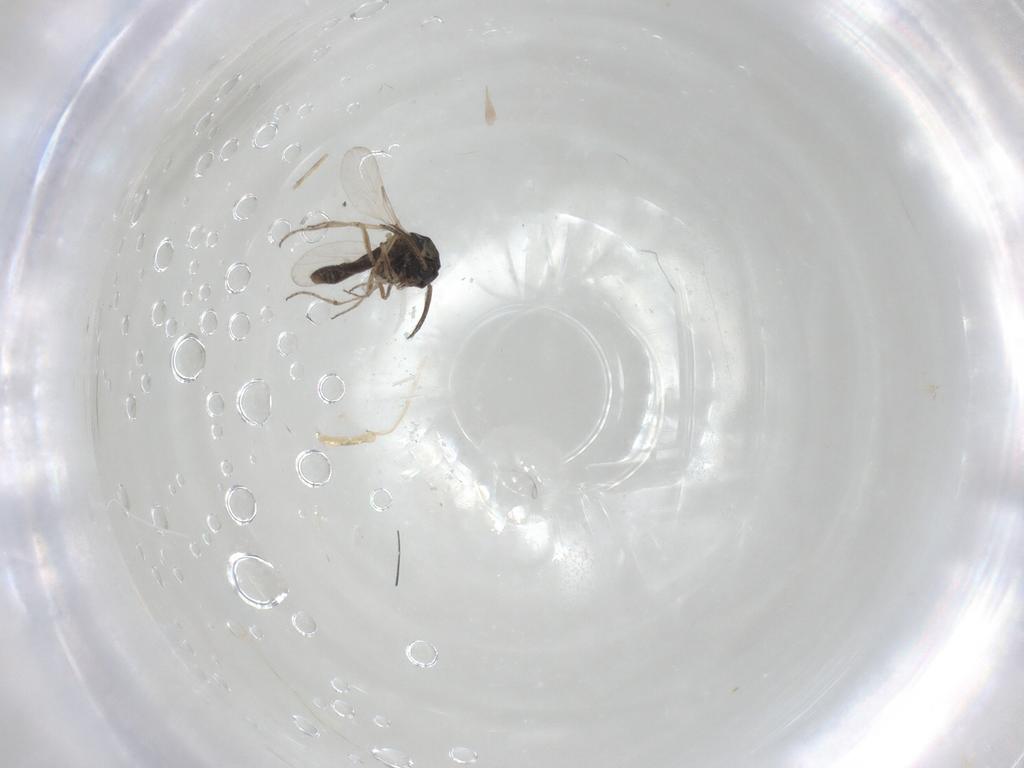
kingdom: Animalia
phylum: Arthropoda
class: Insecta
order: Diptera
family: Ceratopogonidae
